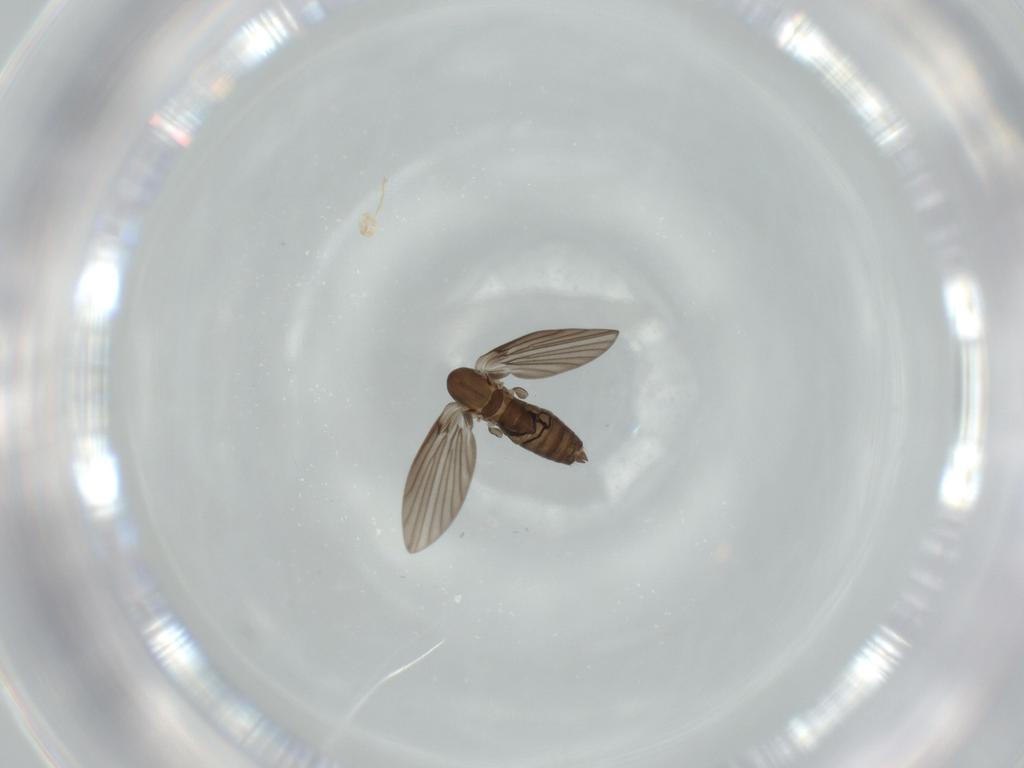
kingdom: Animalia
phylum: Arthropoda
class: Insecta
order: Diptera
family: Psychodidae
